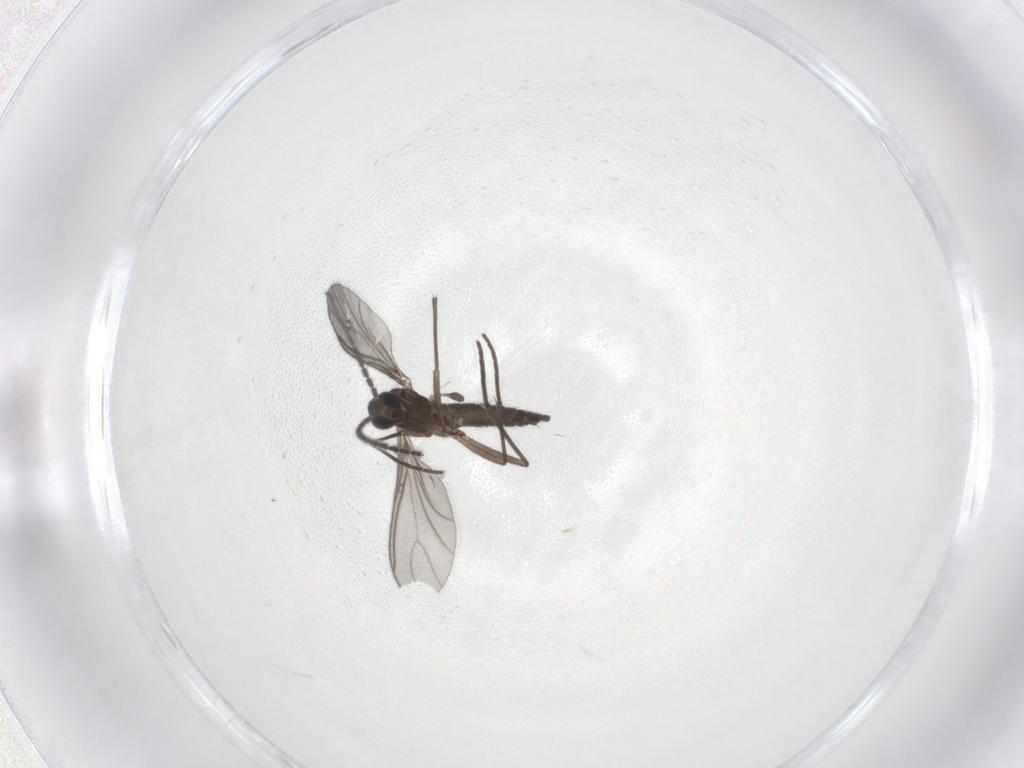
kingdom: Animalia
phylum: Arthropoda
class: Insecta
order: Diptera
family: Sciaridae
